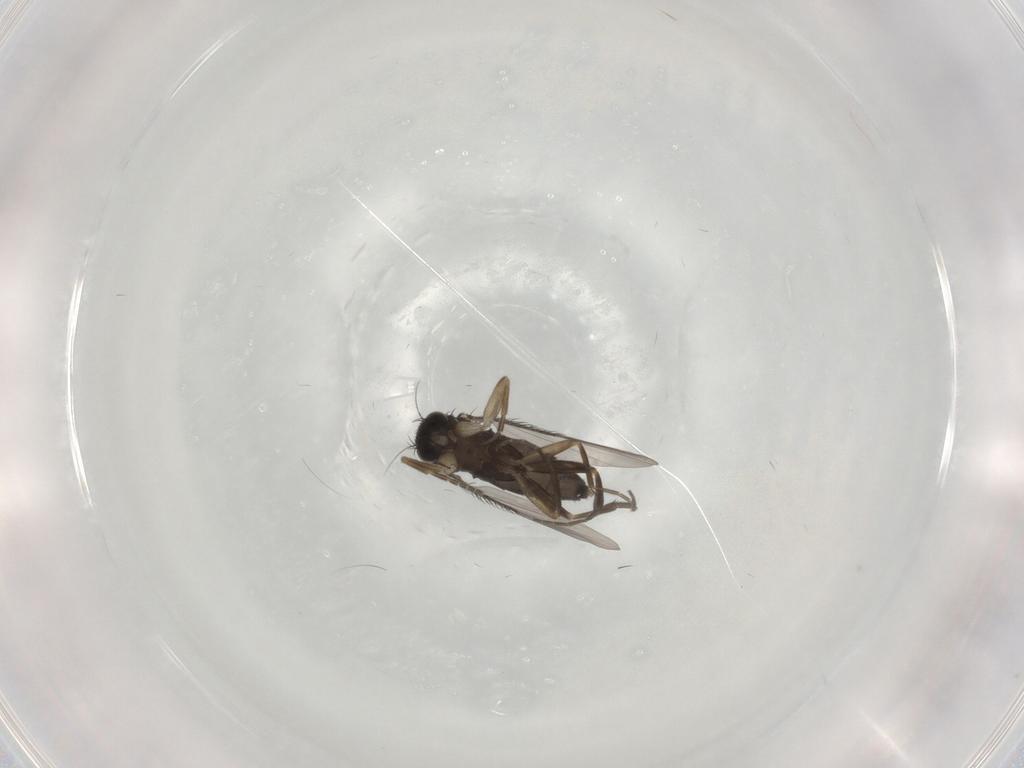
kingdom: Animalia
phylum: Arthropoda
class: Insecta
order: Diptera
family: Phoridae
